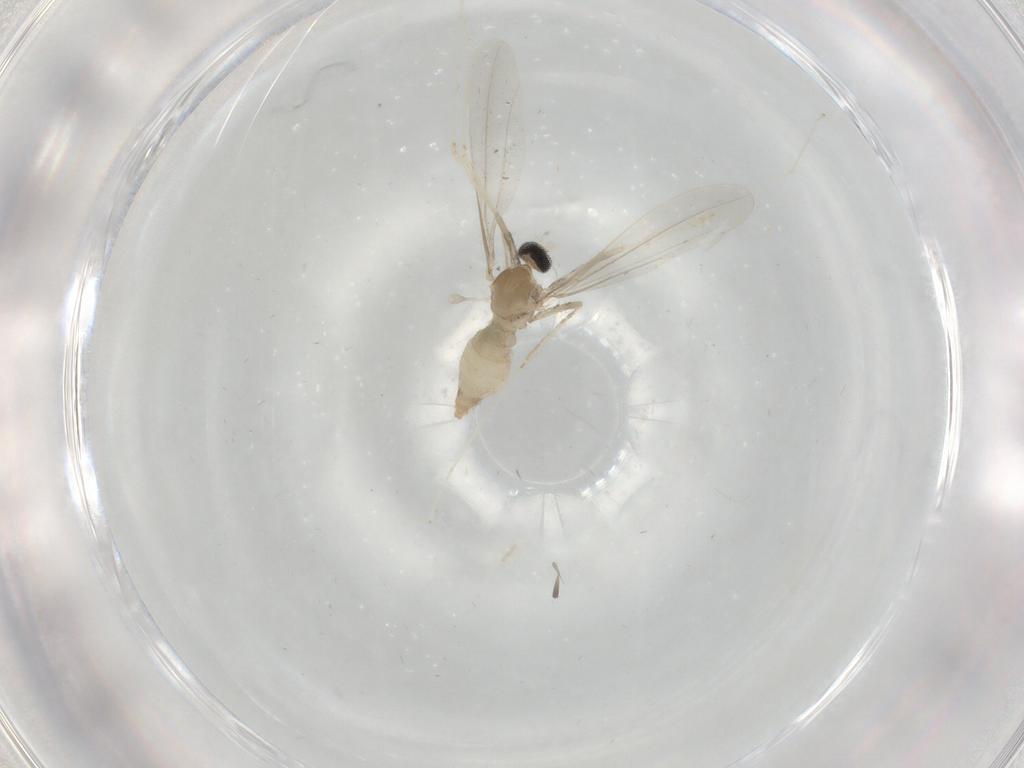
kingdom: Animalia
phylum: Arthropoda
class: Insecta
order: Diptera
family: Cecidomyiidae
